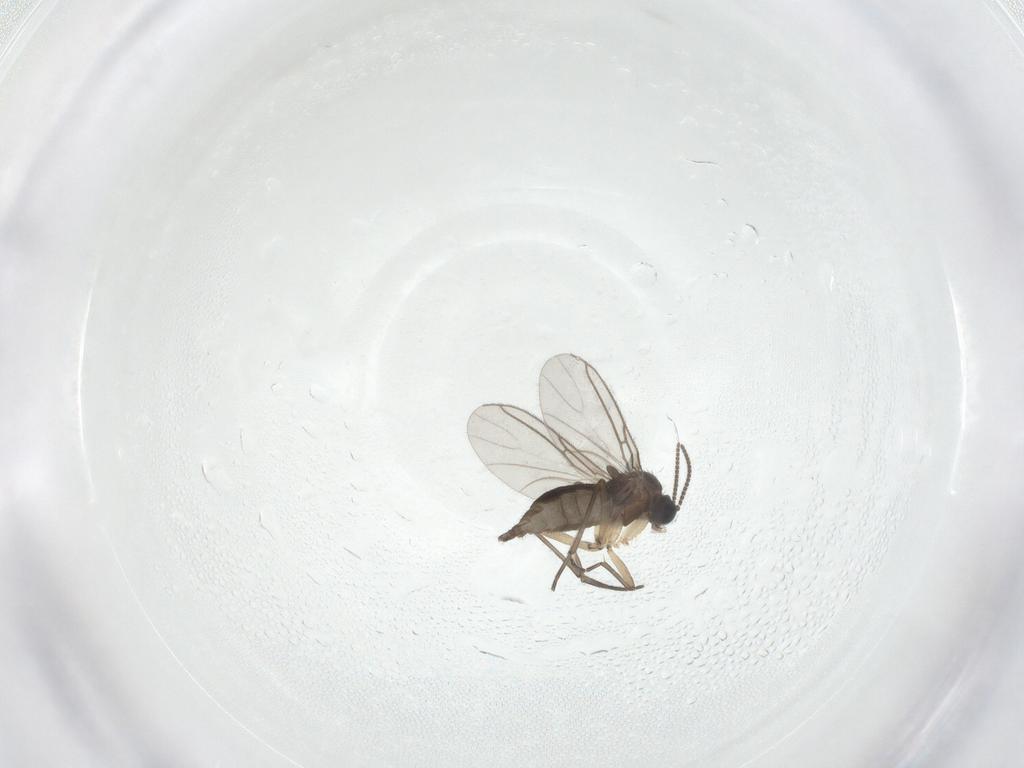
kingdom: Animalia
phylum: Arthropoda
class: Insecta
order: Diptera
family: Sciaridae
